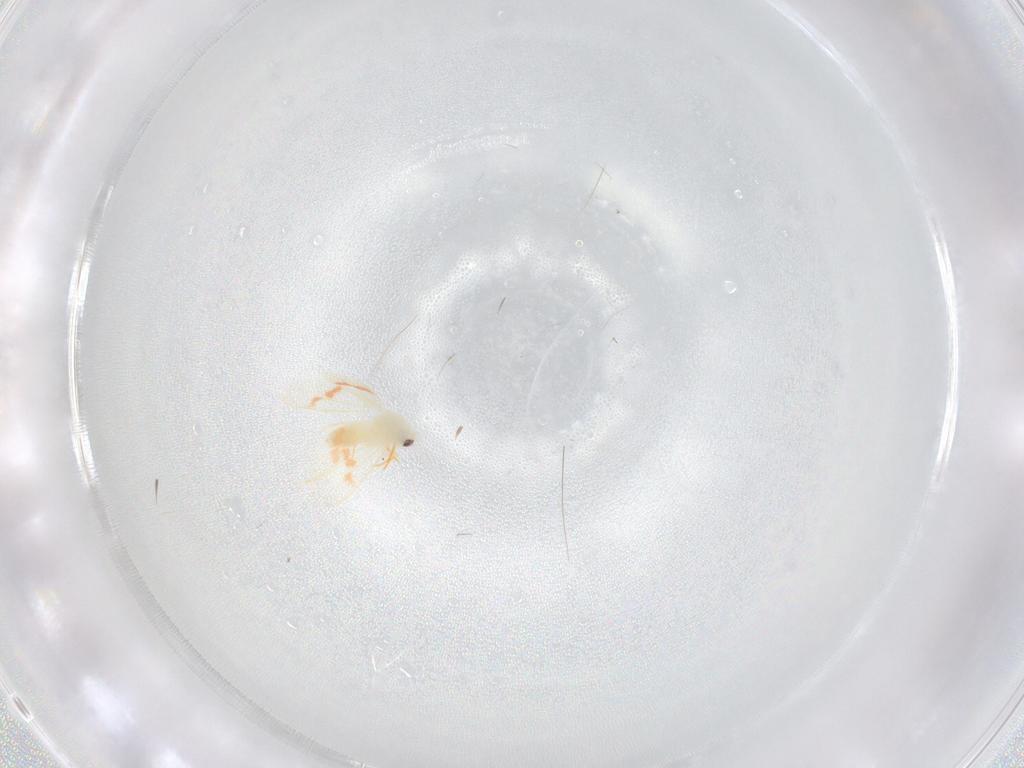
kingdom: Animalia
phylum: Arthropoda
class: Insecta
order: Hemiptera
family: Aleyrodidae
